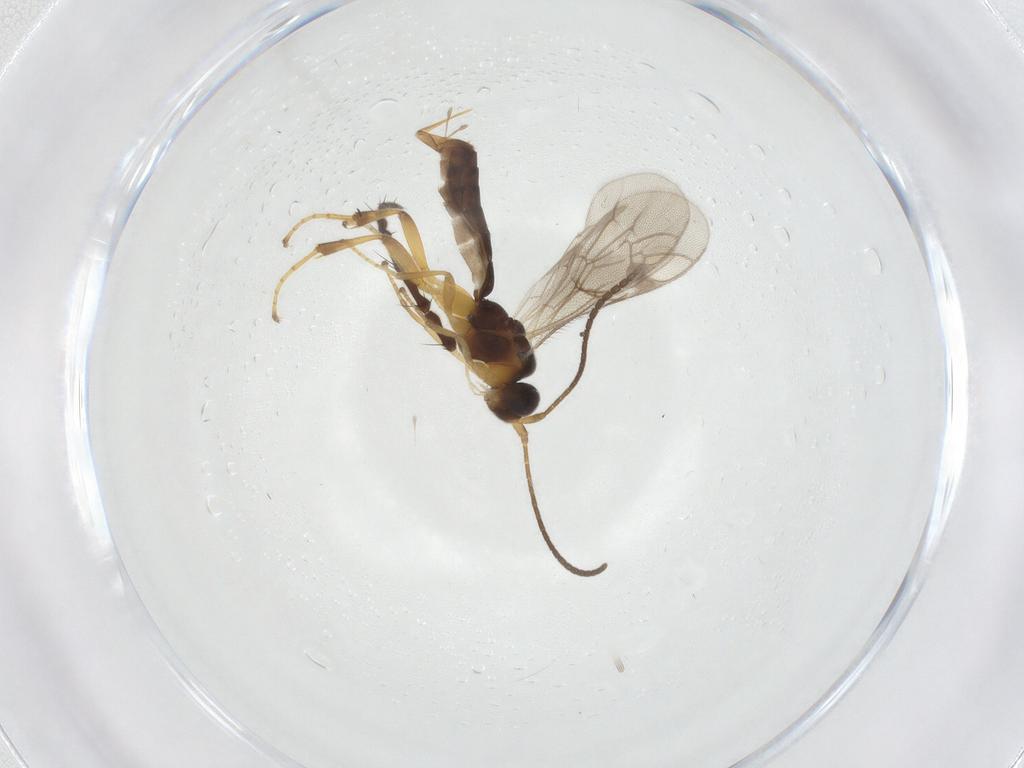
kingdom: Animalia
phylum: Arthropoda
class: Insecta
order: Hymenoptera
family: Ichneumonidae
